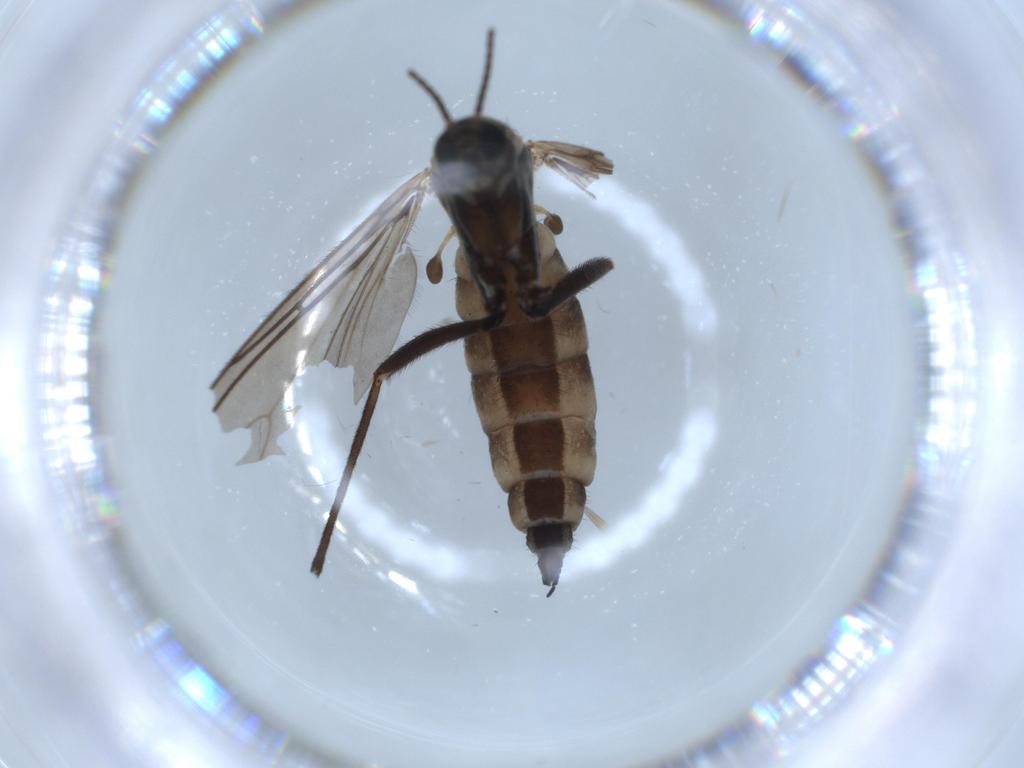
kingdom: Animalia
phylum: Arthropoda
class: Insecta
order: Diptera
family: Sciaridae
